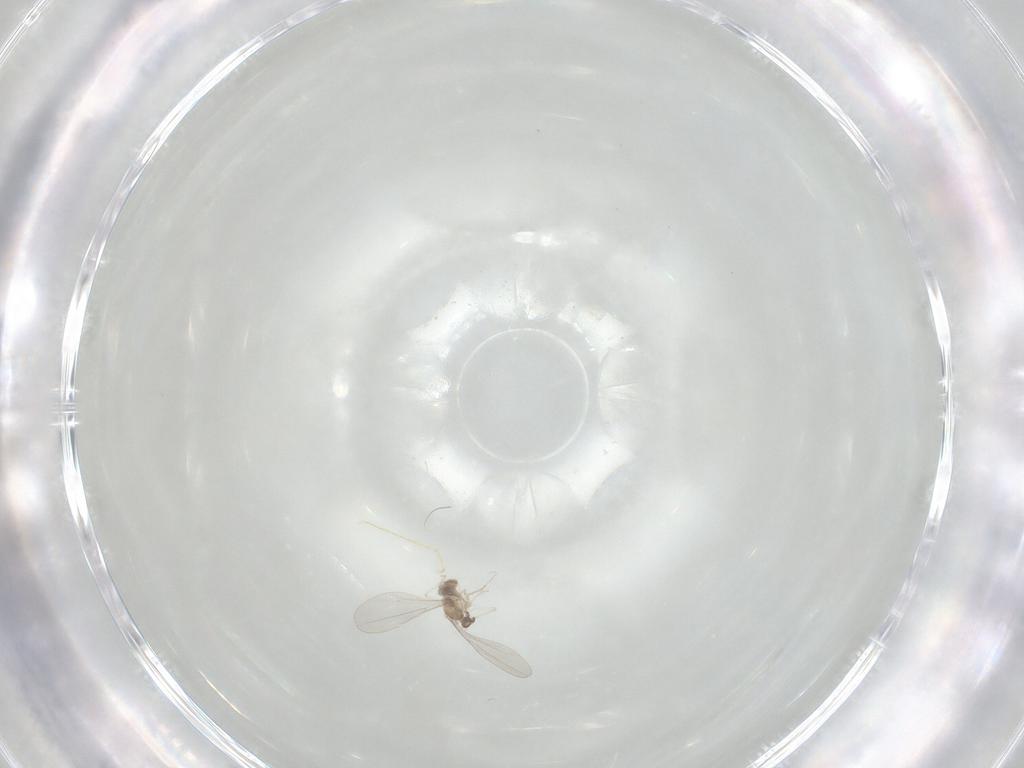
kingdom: Animalia
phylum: Arthropoda
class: Insecta
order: Diptera
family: Cecidomyiidae
